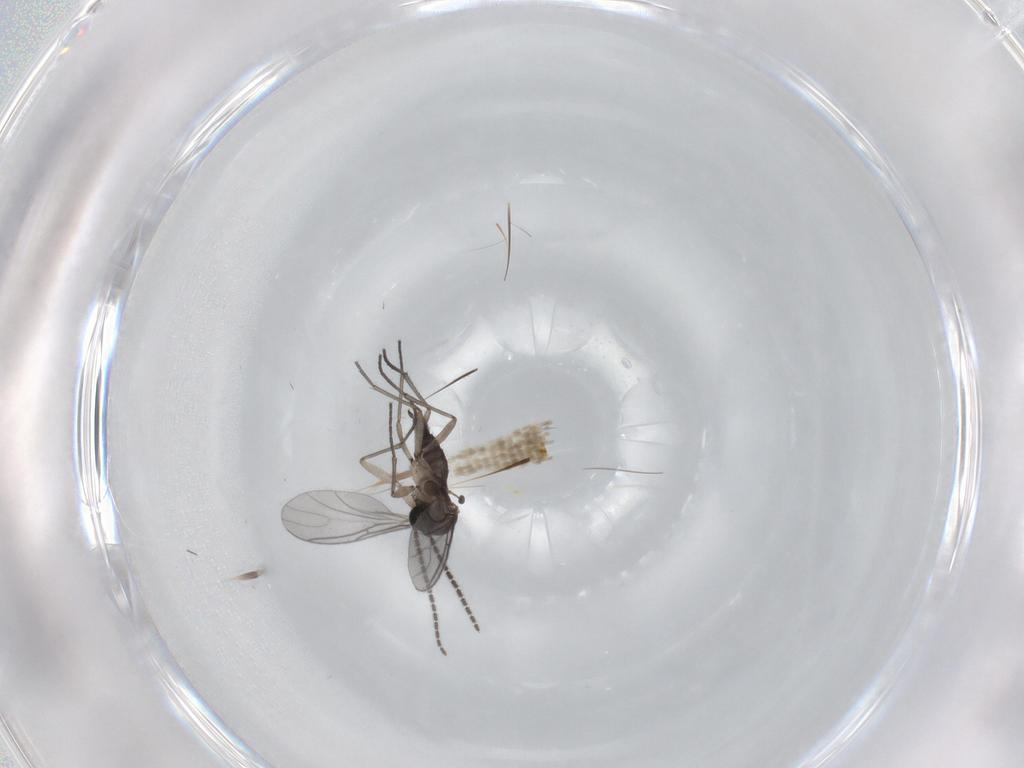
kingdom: Animalia
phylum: Arthropoda
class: Insecta
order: Diptera
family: Sciaridae
